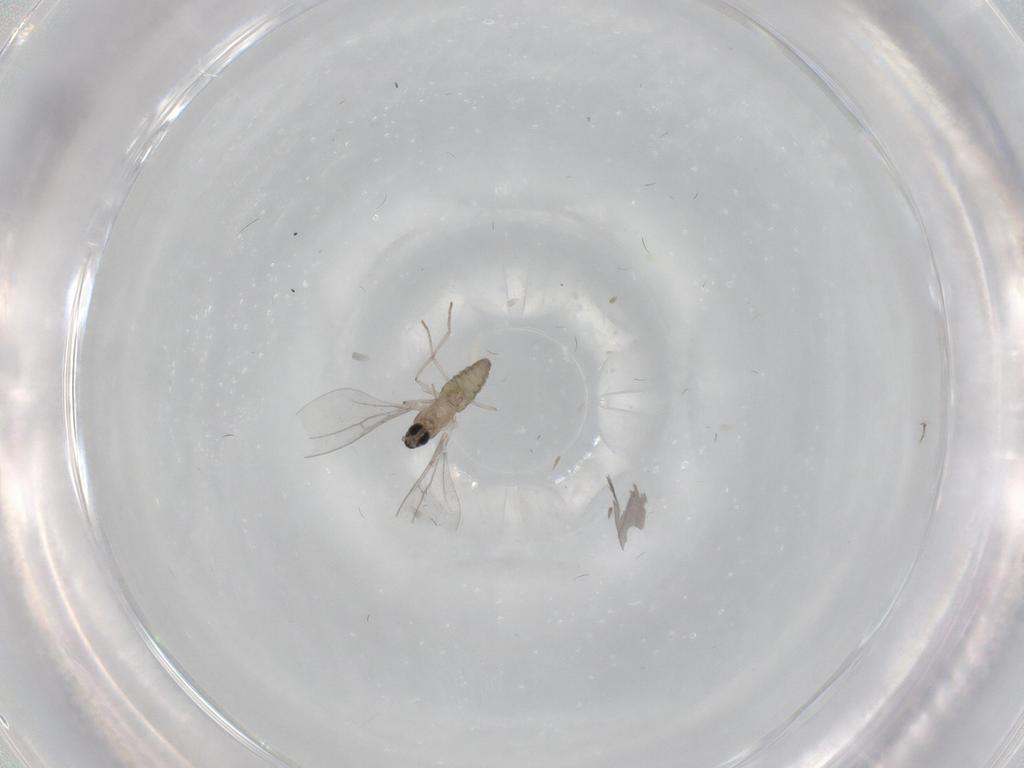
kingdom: Animalia
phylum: Arthropoda
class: Insecta
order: Diptera
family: Cecidomyiidae
